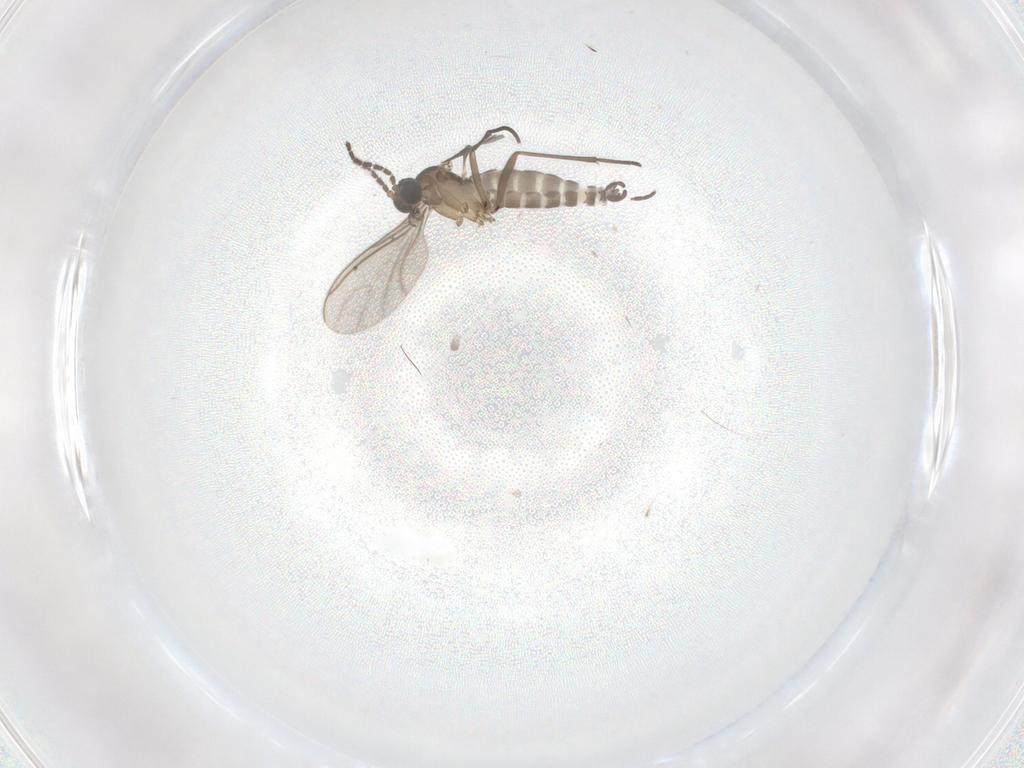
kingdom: Animalia
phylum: Arthropoda
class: Insecta
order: Diptera
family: Sciaridae
